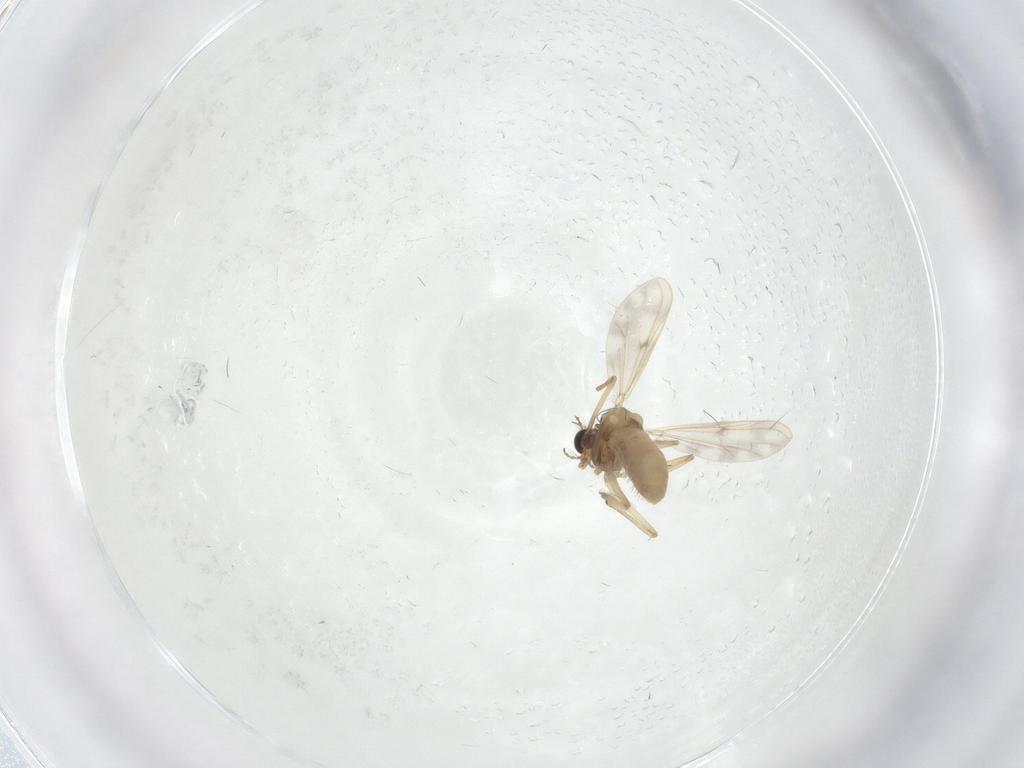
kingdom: Animalia
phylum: Arthropoda
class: Insecta
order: Diptera
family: Chironomidae
